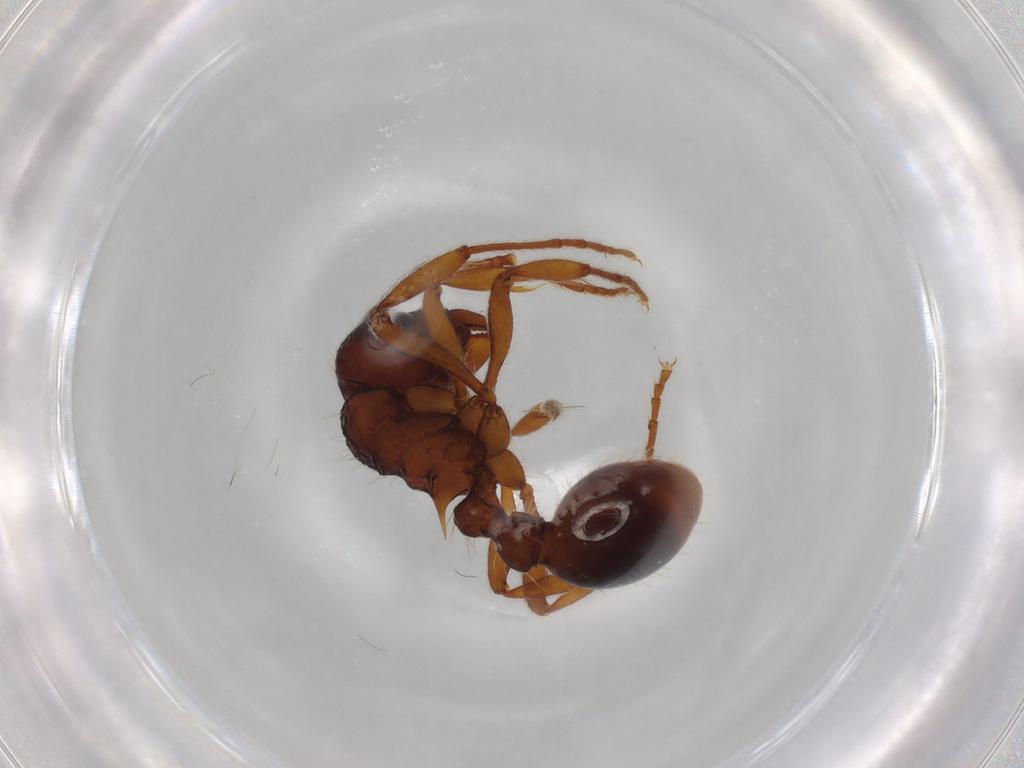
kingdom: Animalia
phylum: Arthropoda
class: Insecta
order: Hymenoptera
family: Formicidae
